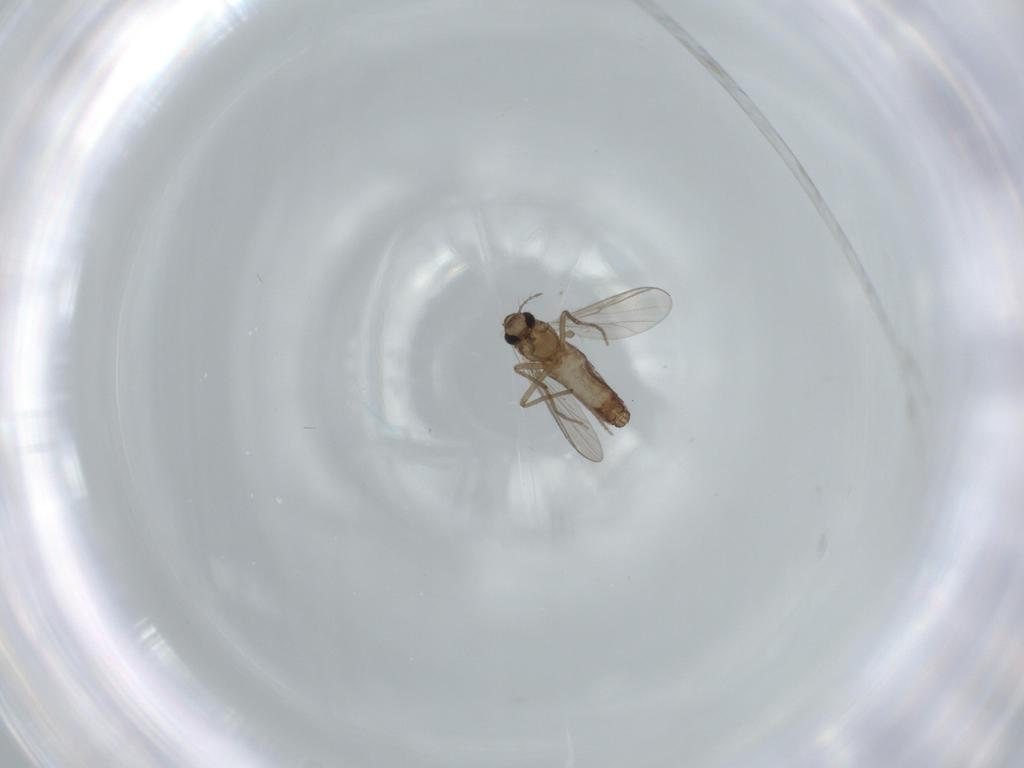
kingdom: Animalia
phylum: Arthropoda
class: Insecta
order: Diptera
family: Chironomidae
